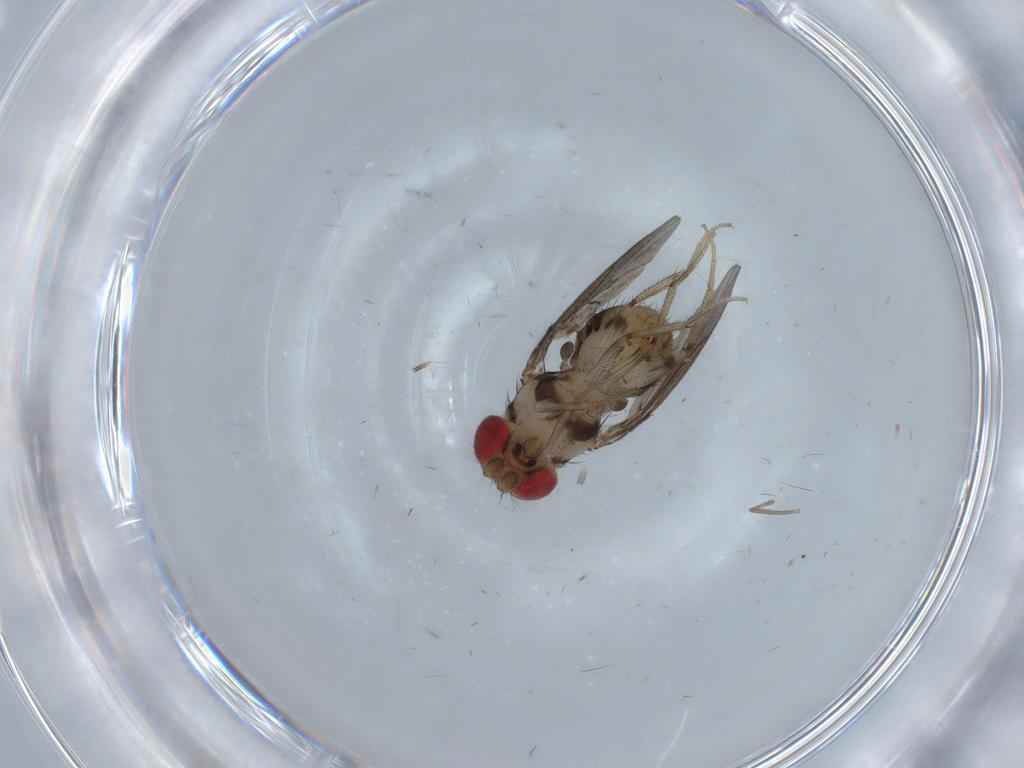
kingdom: Animalia
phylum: Arthropoda
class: Insecta
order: Diptera
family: Cecidomyiidae
